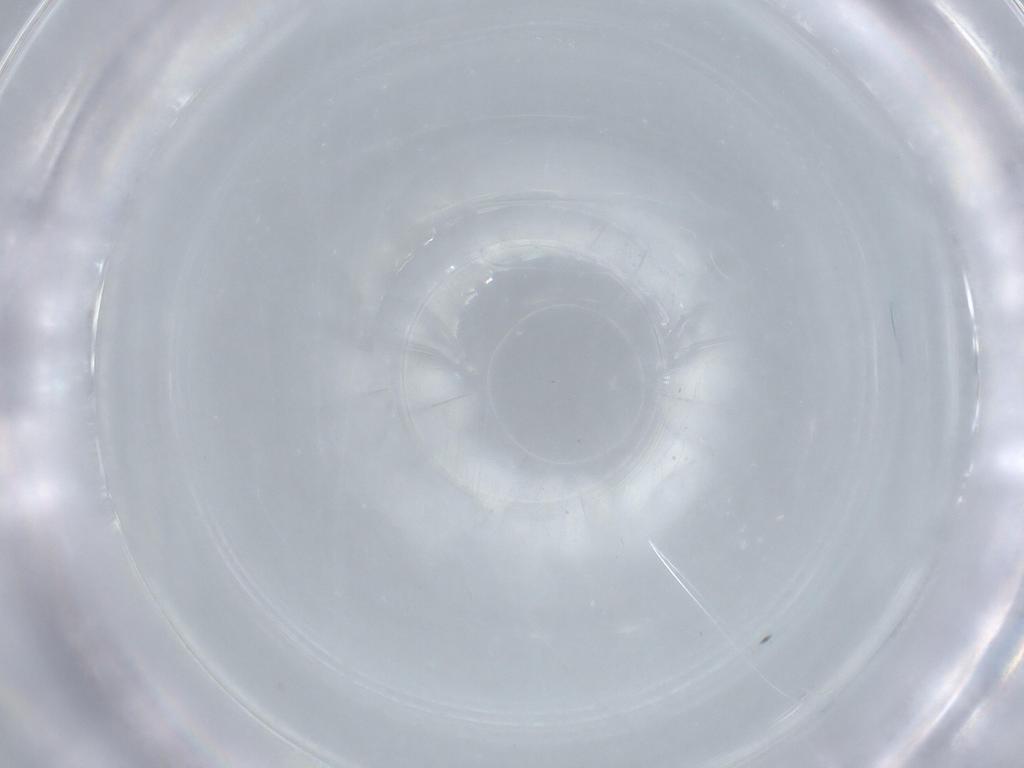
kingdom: Animalia
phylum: Arthropoda
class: Insecta
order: Diptera
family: Ceratopogonidae
